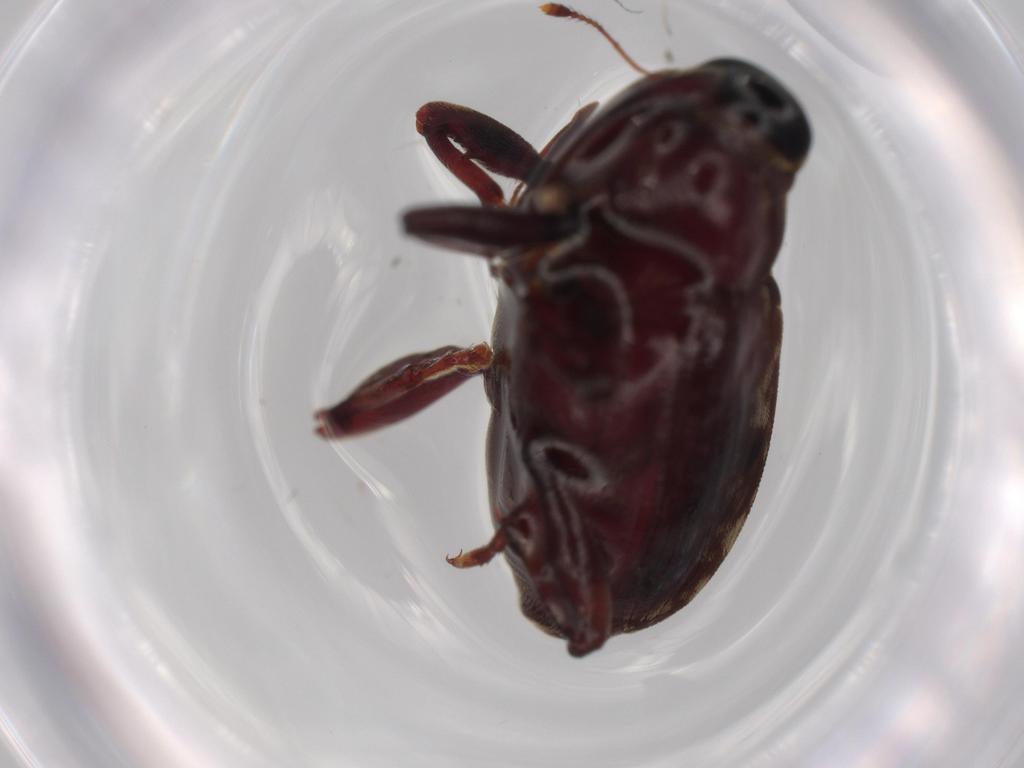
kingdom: Animalia
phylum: Arthropoda
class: Insecta
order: Coleoptera
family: Curculionidae
